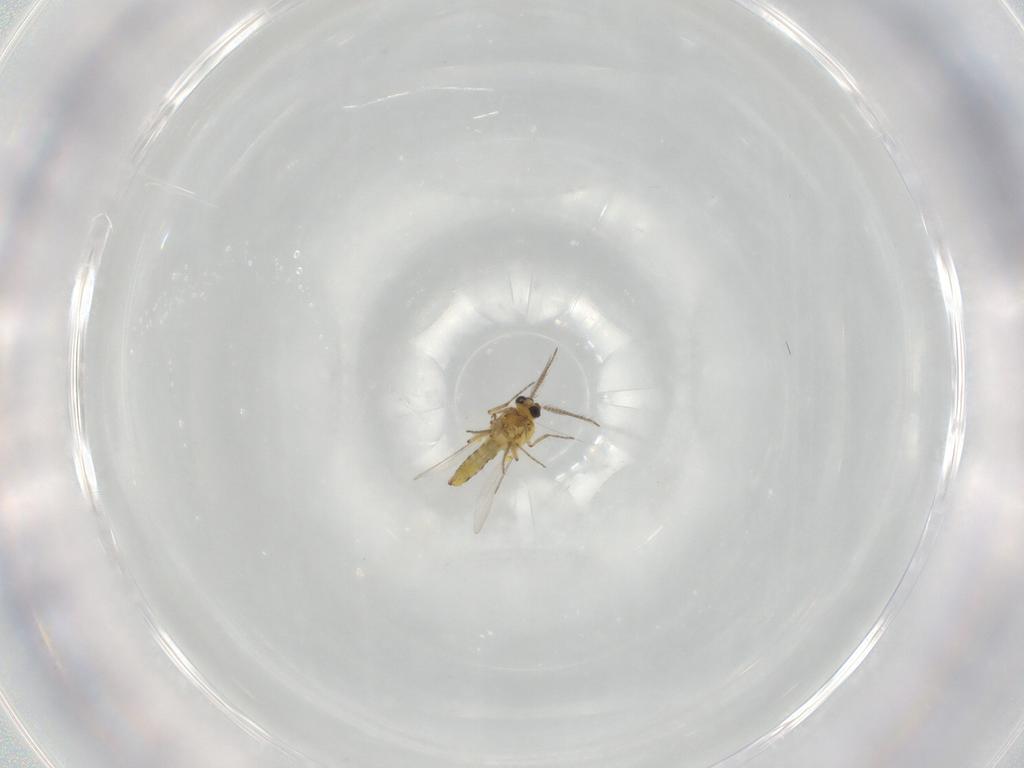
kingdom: Animalia
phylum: Arthropoda
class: Insecta
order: Diptera
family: Ceratopogonidae
